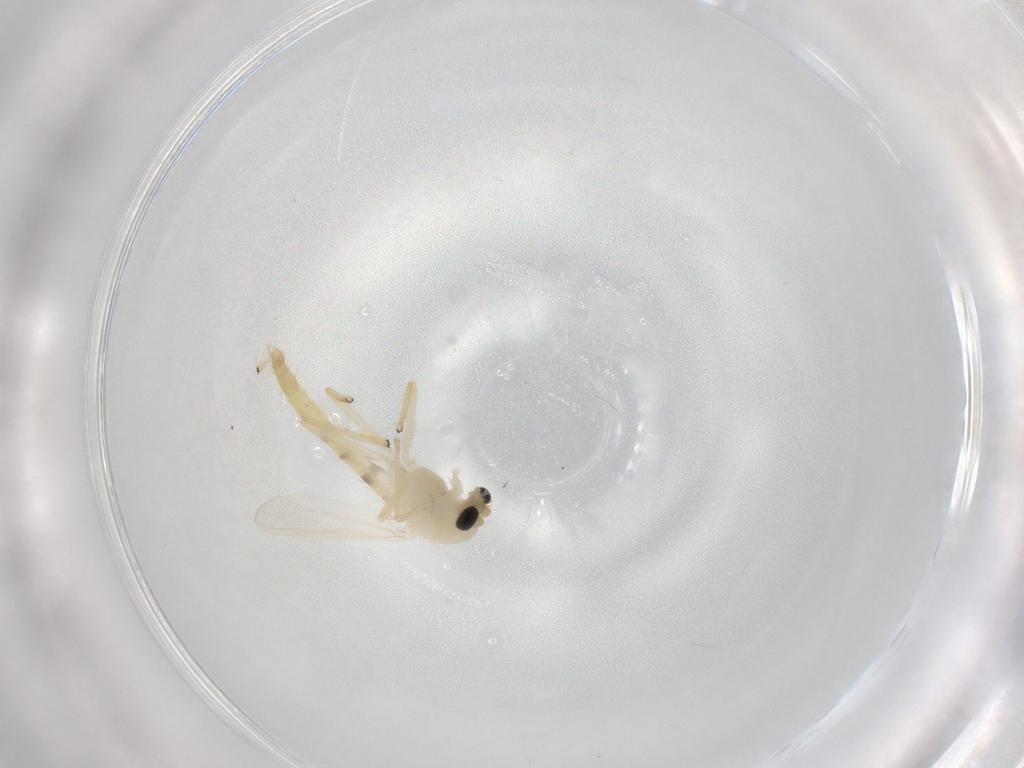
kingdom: Animalia
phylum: Arthropoda
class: Insecta
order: Diptera
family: Chironomidae
